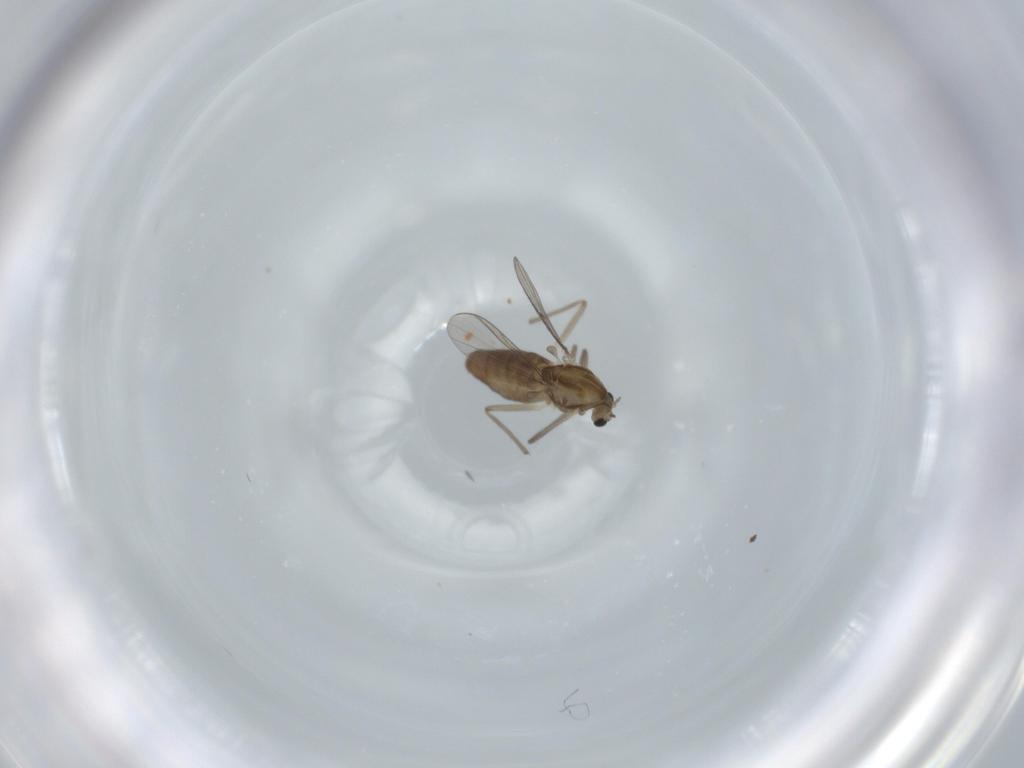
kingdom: Animalia
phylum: Arthropoda
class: Insecta
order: Diptera
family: Chironomidae
